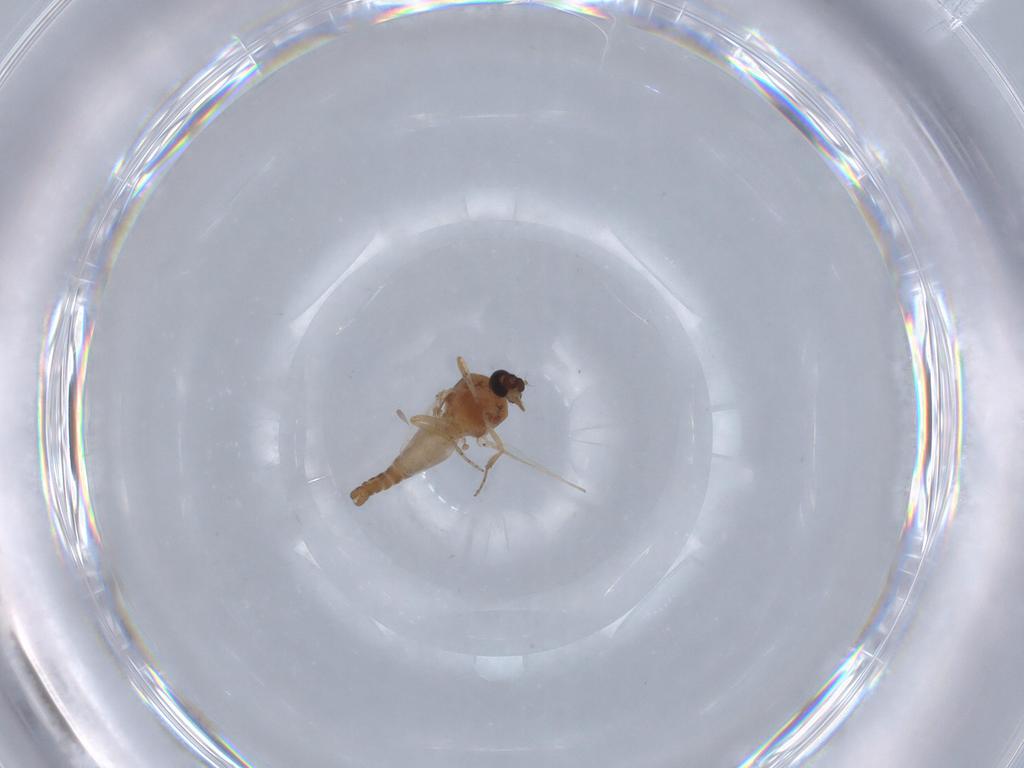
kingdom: Animalia
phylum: Arthropoda
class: Insecta
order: Diptera
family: Ceratopogonidae
